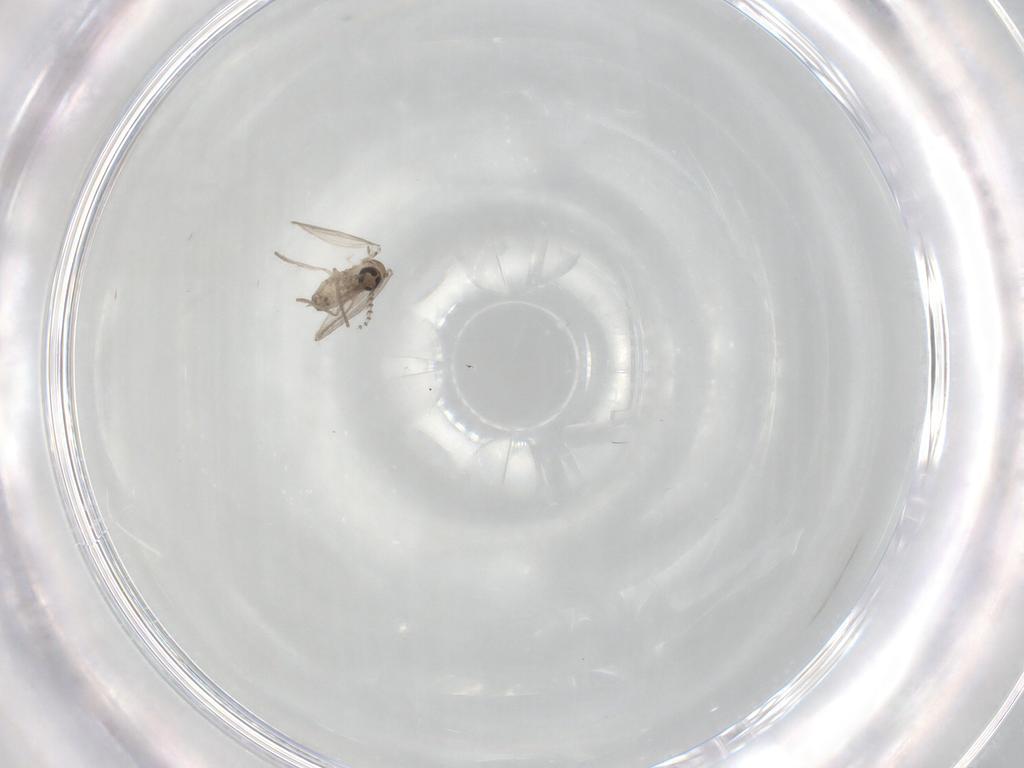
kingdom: Animalia
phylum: Arthropoda
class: Insecta
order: Diptera
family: Psychodidae
